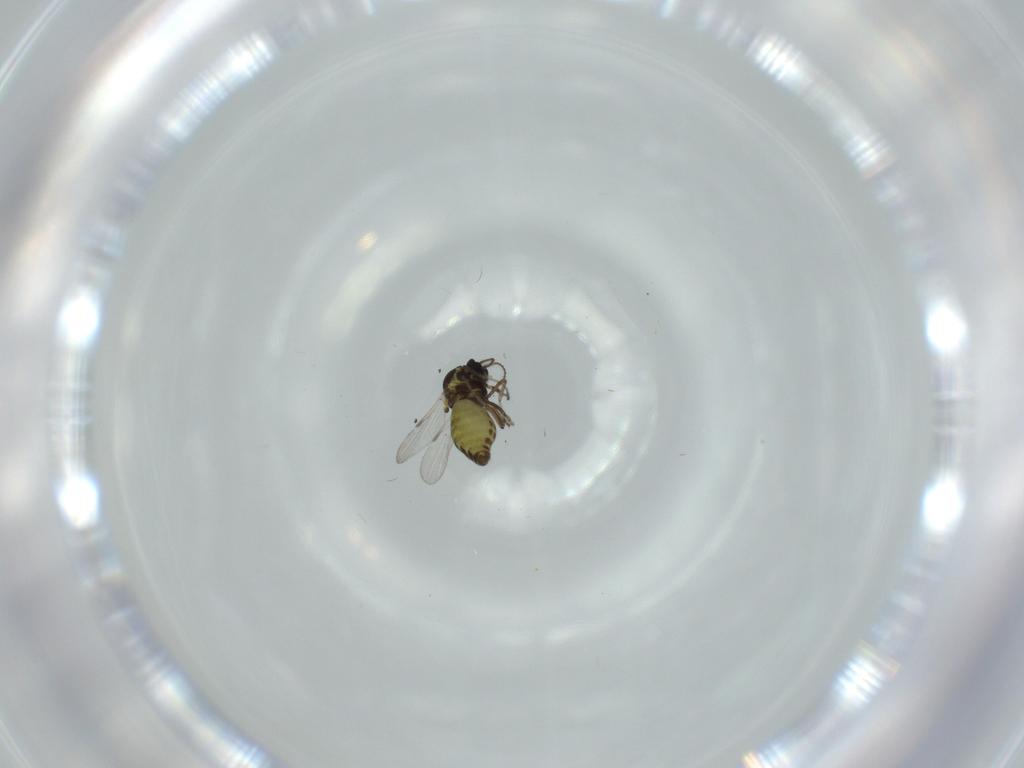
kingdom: Animalia
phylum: Arthropoda
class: Insecta
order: Diptera
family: Ceratopogonidae
